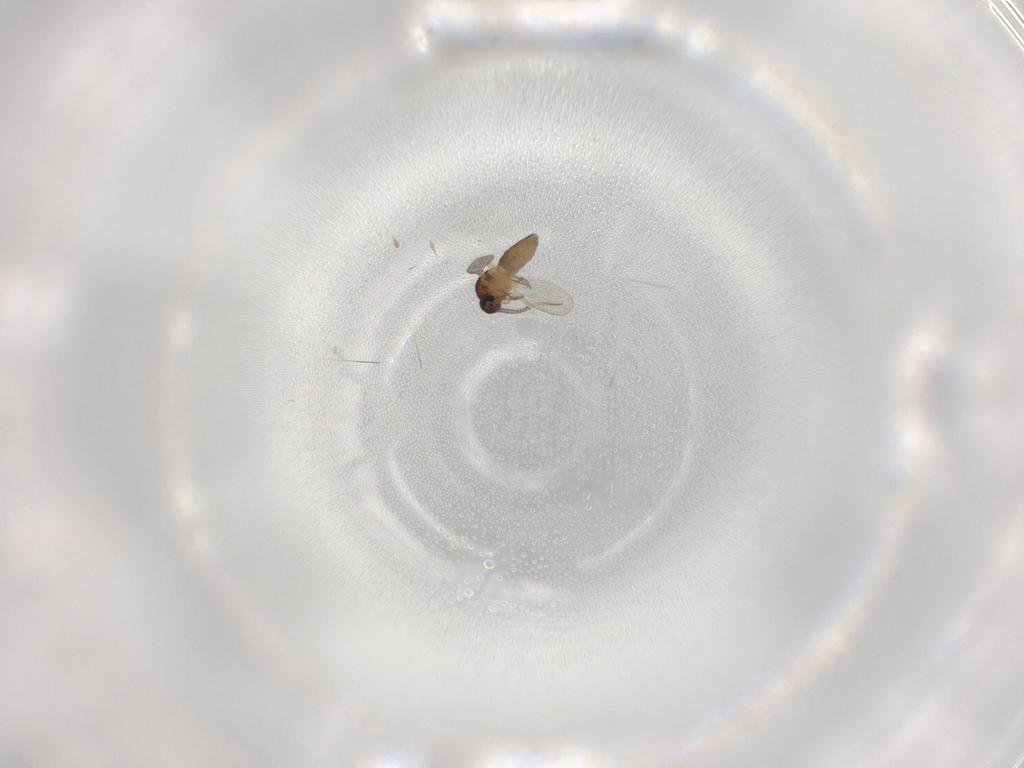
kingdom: Animalia
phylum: Arthropoda
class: Insecta
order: Diptera
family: Ceratopogonidae
